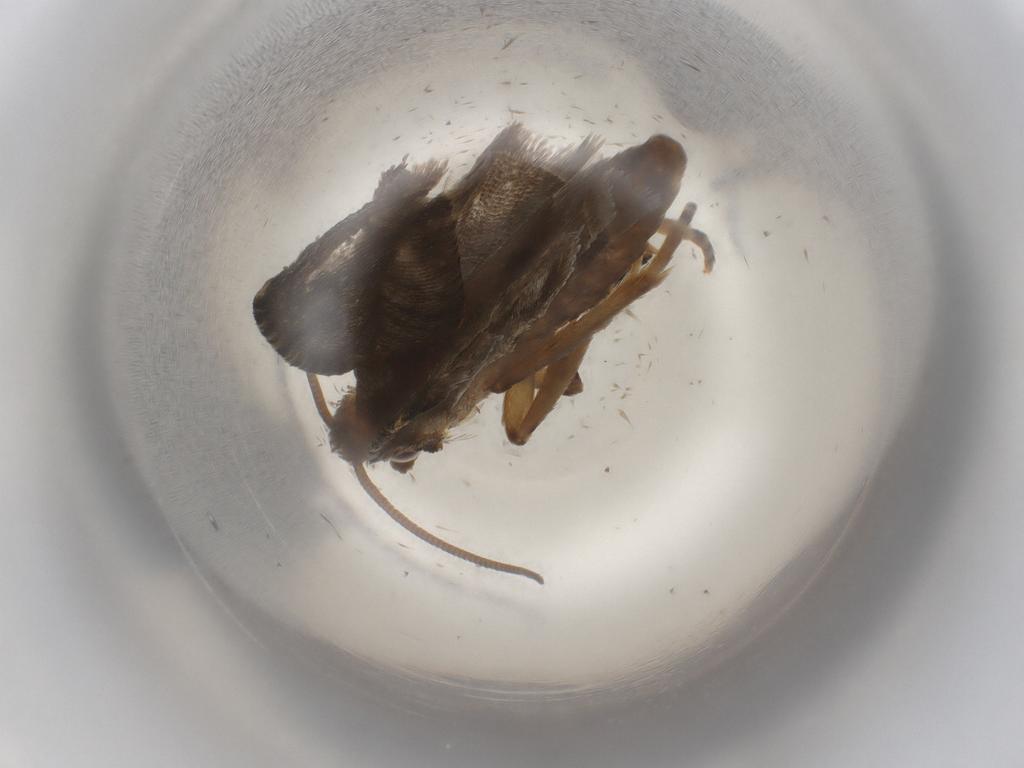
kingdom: Animalia
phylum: Arthropoda
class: Insecta
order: Lepidoptera
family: Tortricidae
